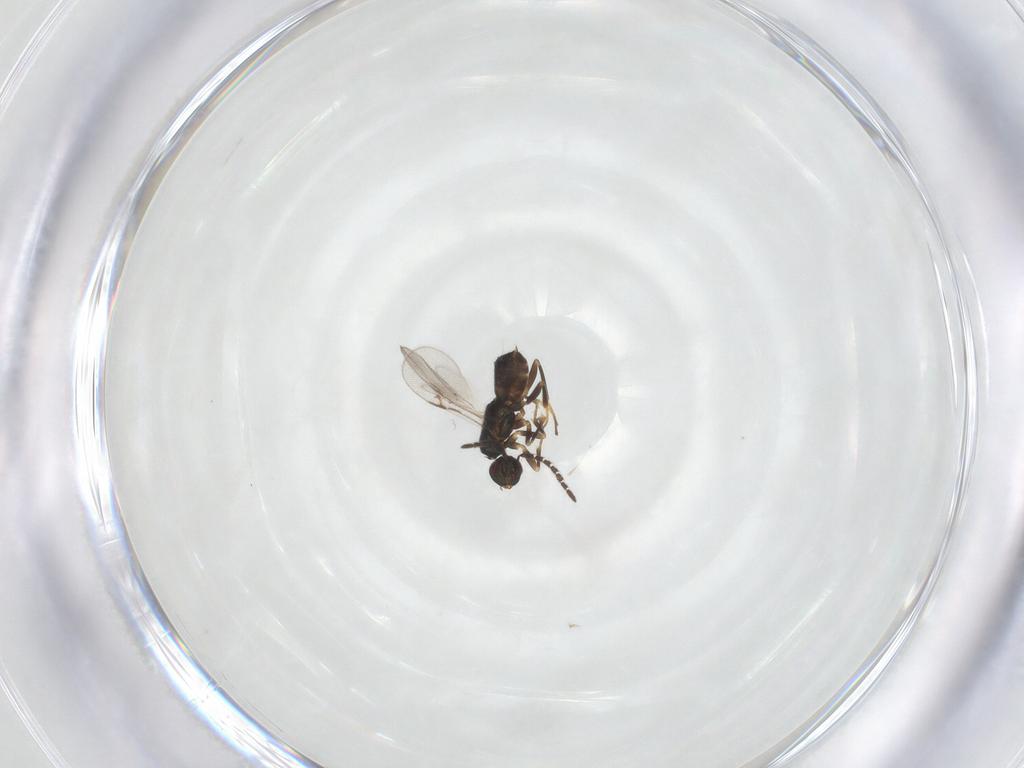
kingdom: Animalia
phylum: Arthropoda
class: Insecta
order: Hymenoptera
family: Encyrtidae
